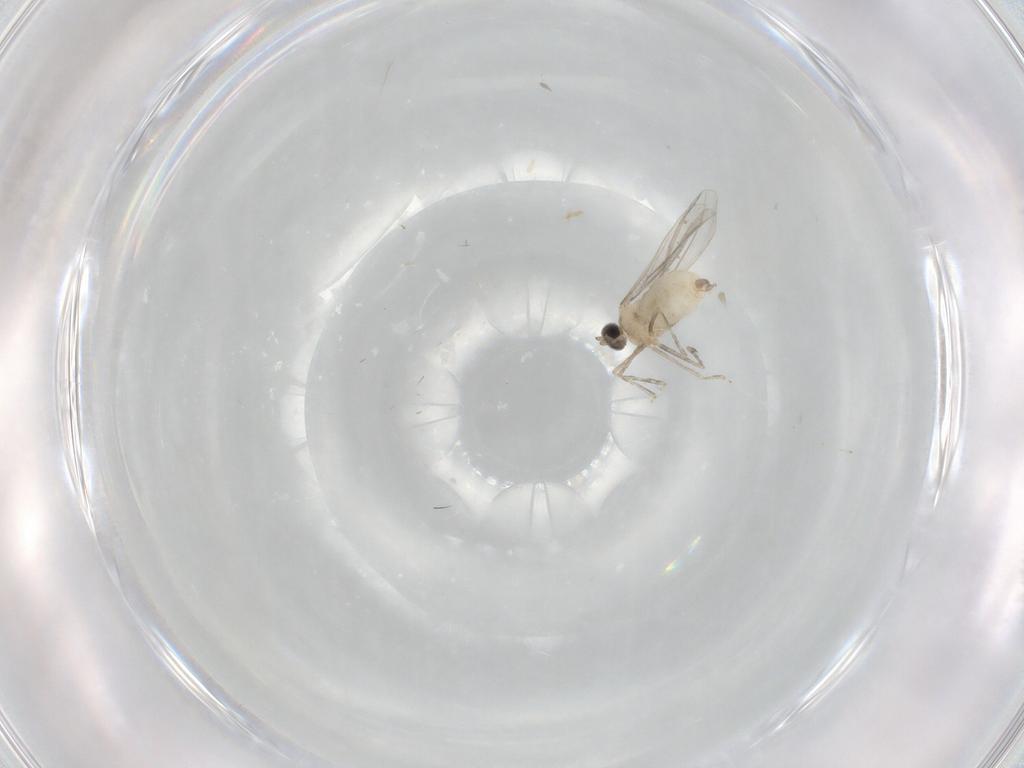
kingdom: Animalia
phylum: Arthropoda
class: Insecta
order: Diptera
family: Cecidomyiidae
